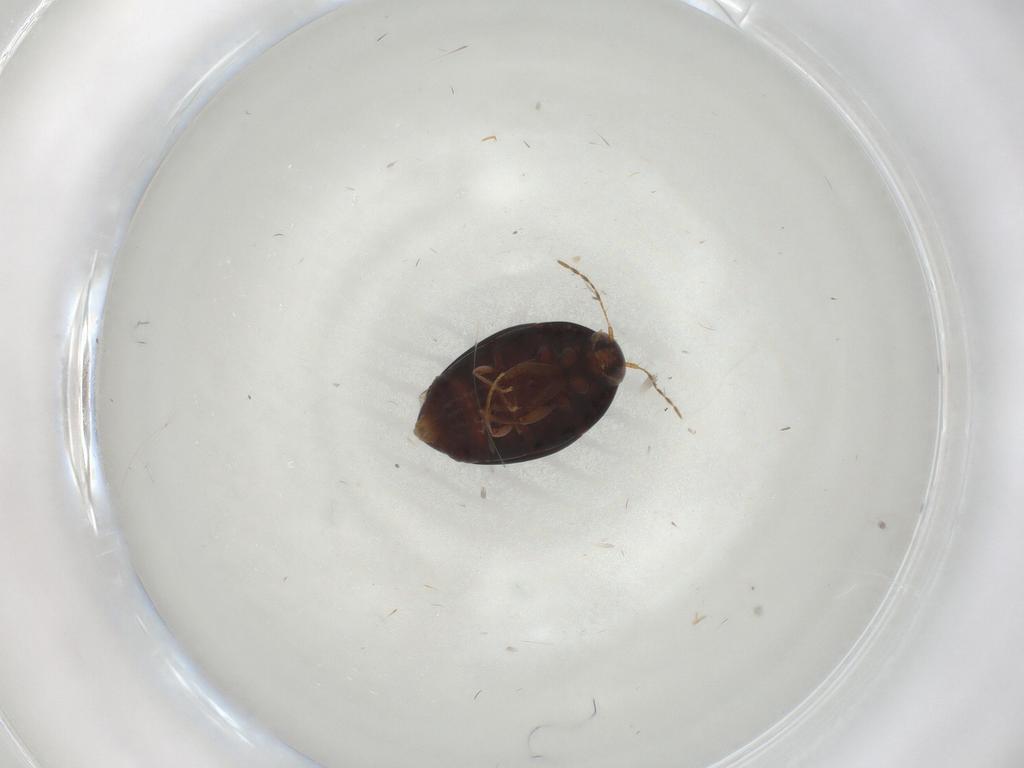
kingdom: Animalia
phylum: Arthropoda
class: Insecta
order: Coleoptera
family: Staphylinidae
